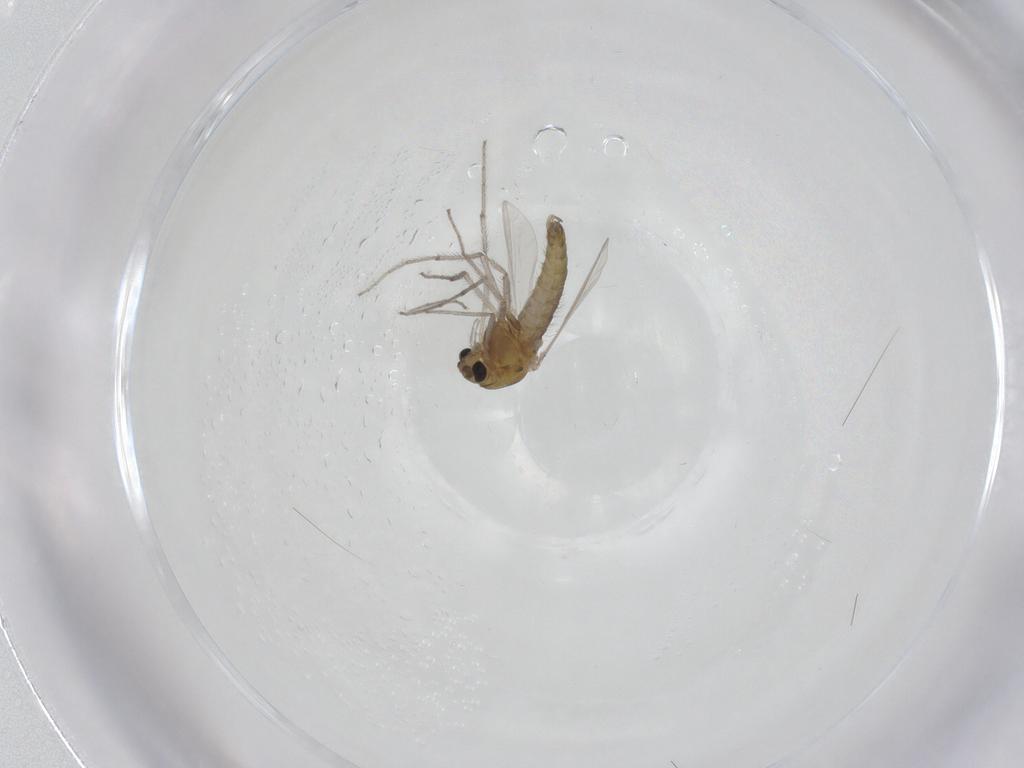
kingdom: Animalia
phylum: Arthropoda
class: Insecta
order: Diptera
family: Chironomidae
